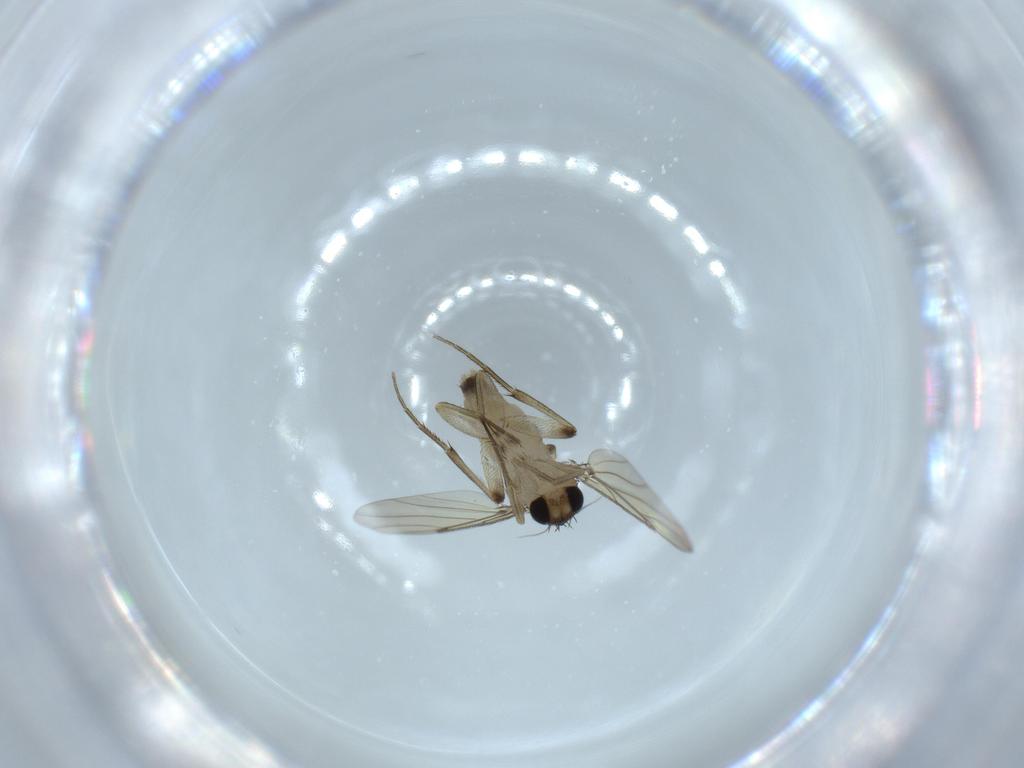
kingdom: Animalia
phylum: Arthropoda
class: Insecta
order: Diptera
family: Phoridae
